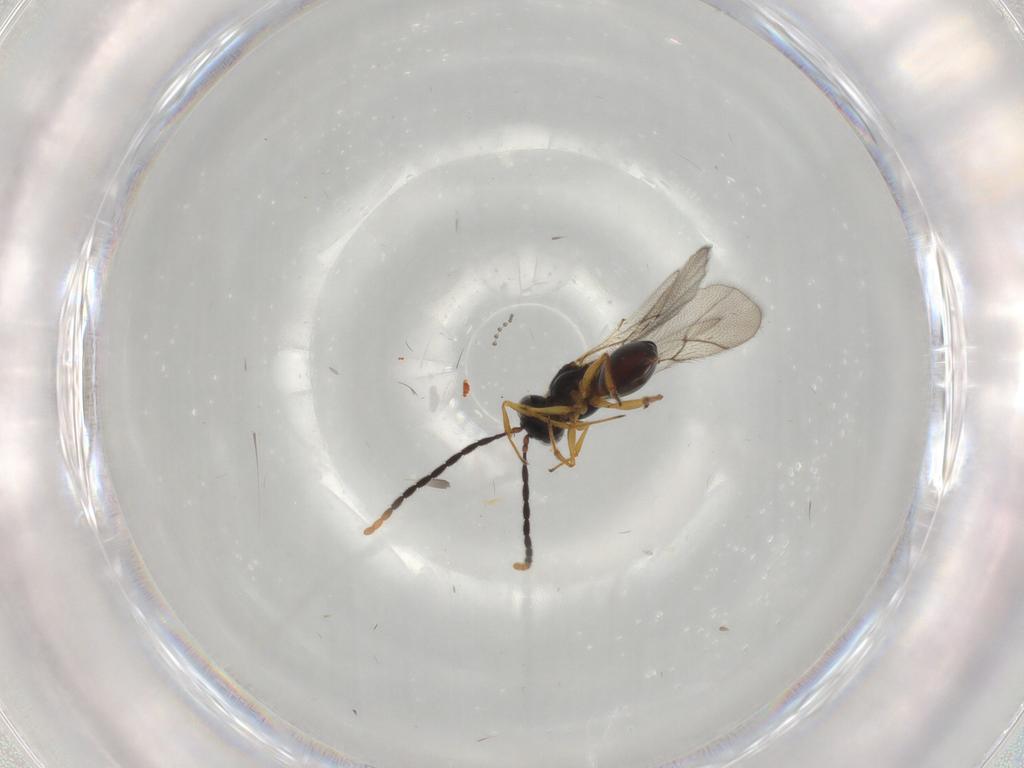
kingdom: Animalia
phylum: Arthropoda
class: Insecta
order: Hymenoptera
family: Figitidae
